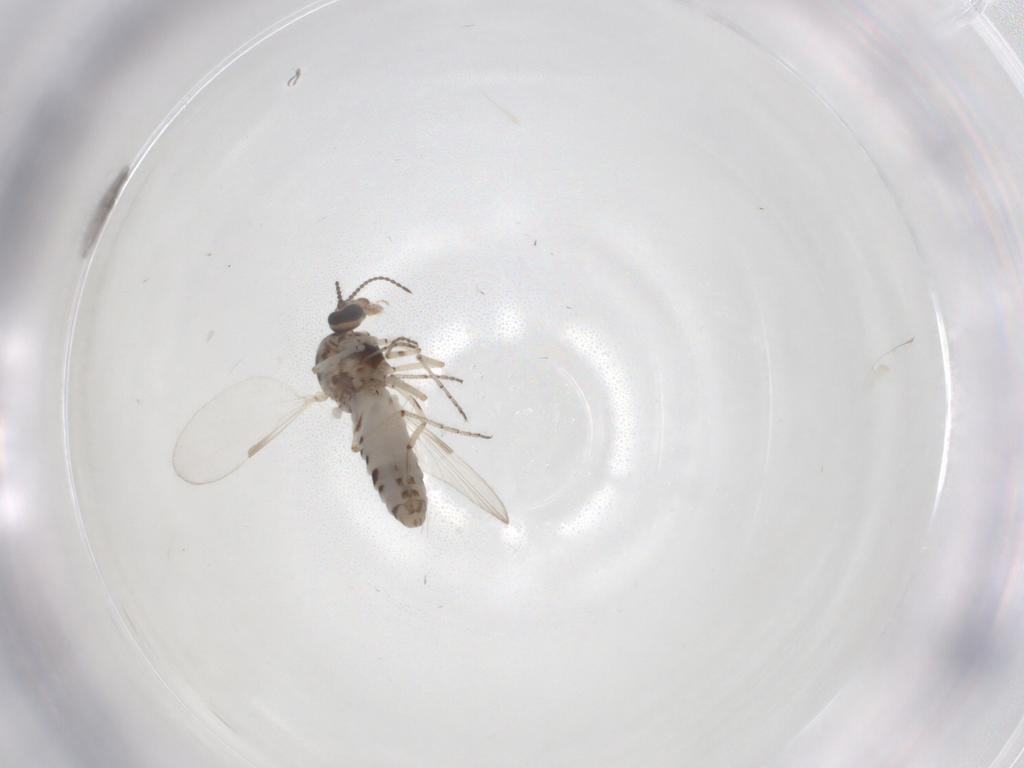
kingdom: Animalia
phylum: Arthropoda
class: Insecta
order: Diptera
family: Ceratopogonidae
